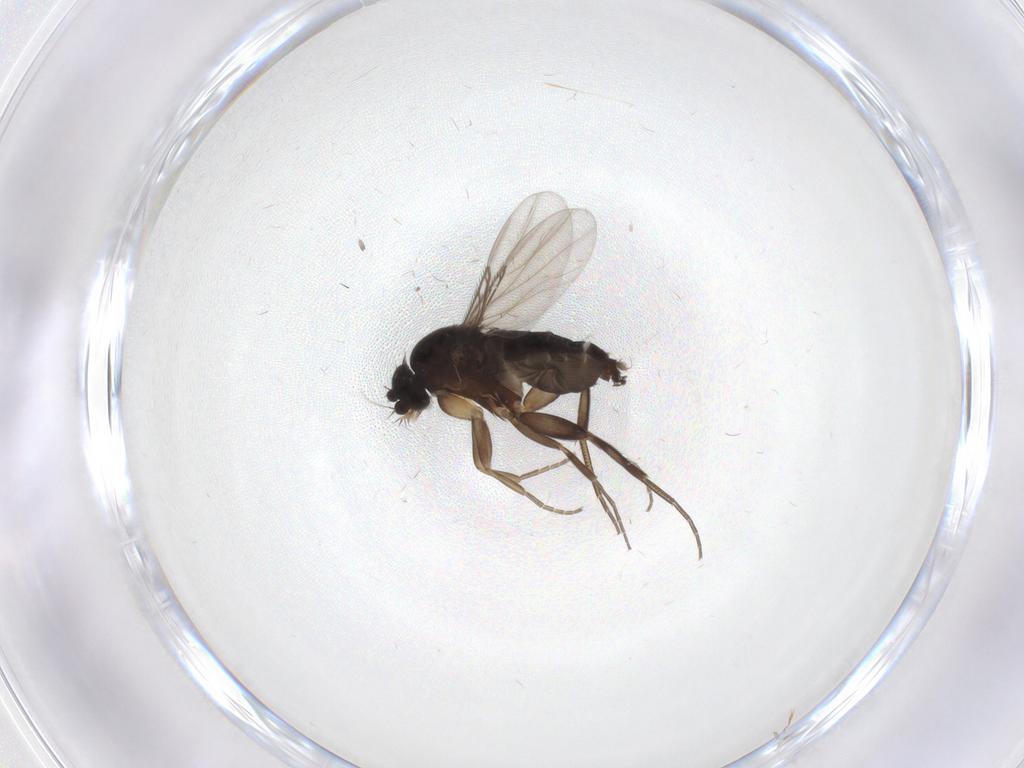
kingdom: Animalia
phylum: Arthropoda
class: Insecta
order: Diptera
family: Phoridae
